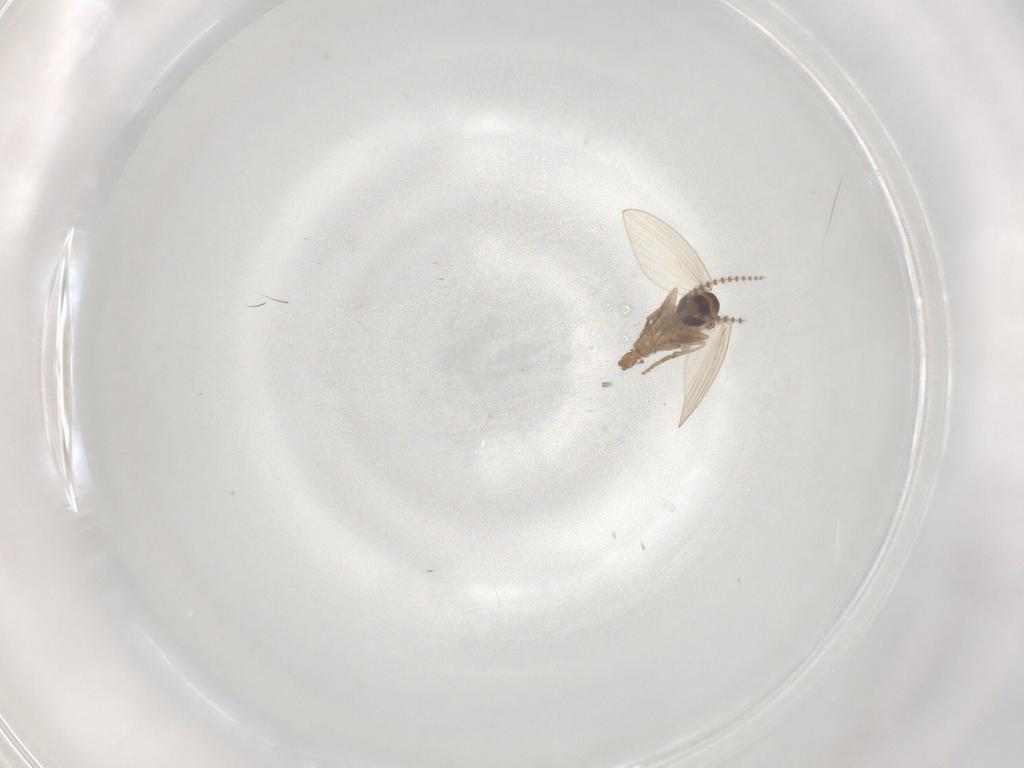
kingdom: Animalia
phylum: Arthropoda
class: Insecta
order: Diptera
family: Psychodidae
